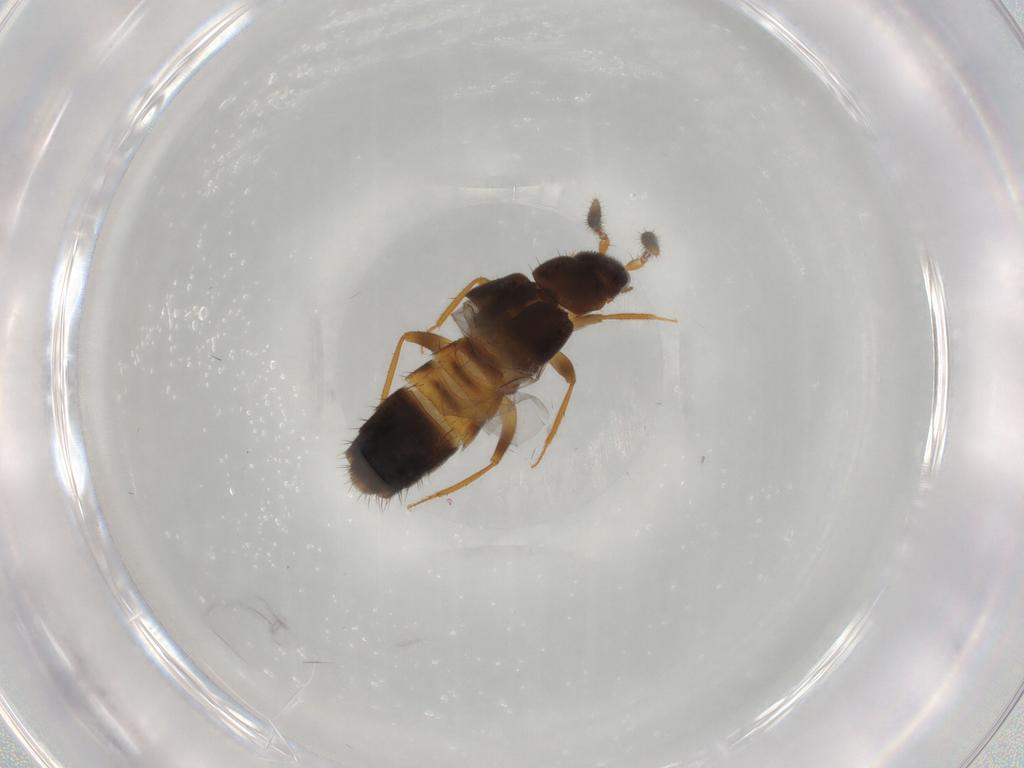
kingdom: Animalia
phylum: Arthropoda
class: Insecta
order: Coleoptera
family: Staphylinidae
